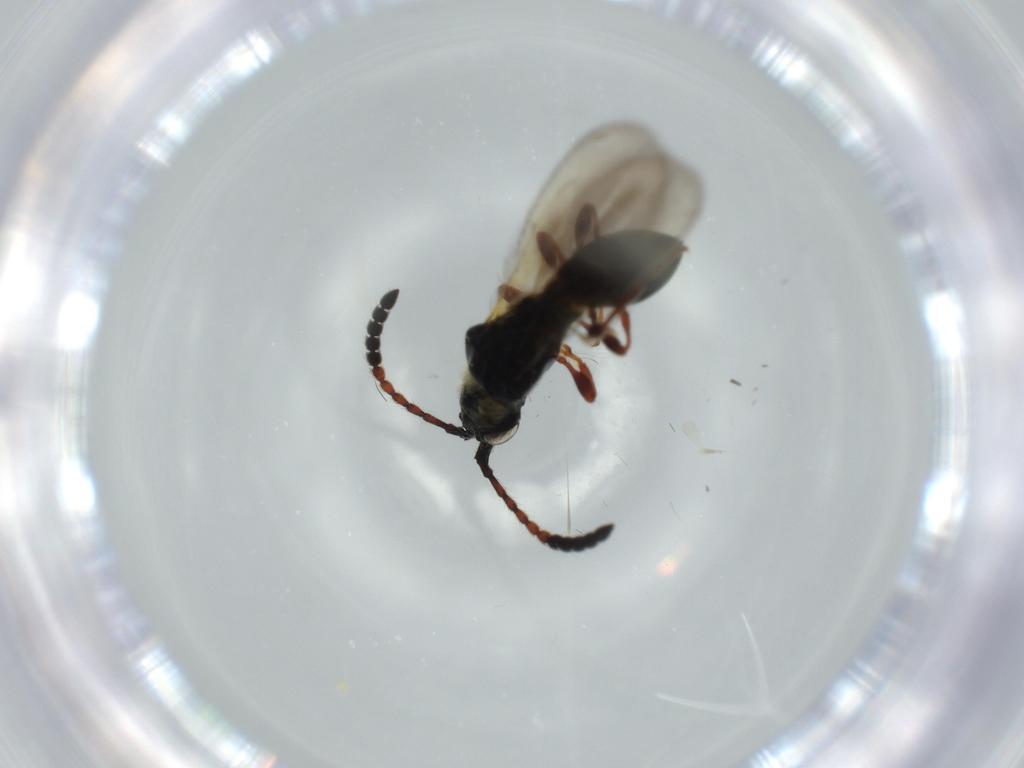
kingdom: Animalia
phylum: Arthropoda
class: Insecta
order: Hymenoptera
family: Diapriidae
